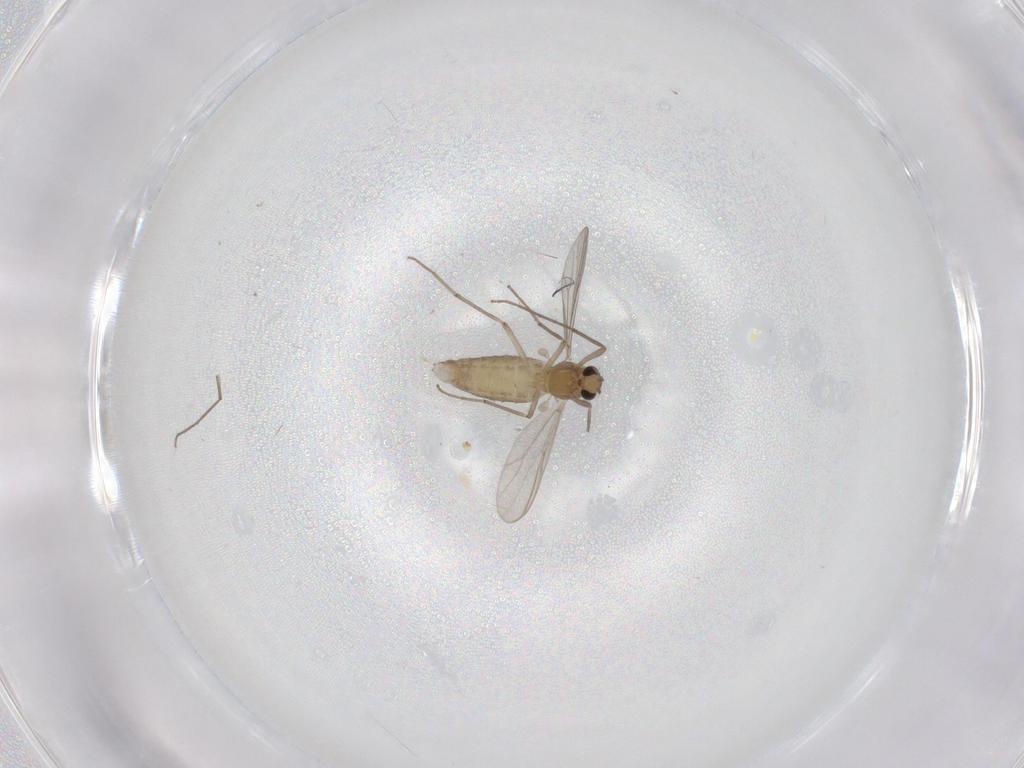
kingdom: Animalia
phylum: Arthropoda
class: Insecta
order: Diptera
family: Chironomidae
